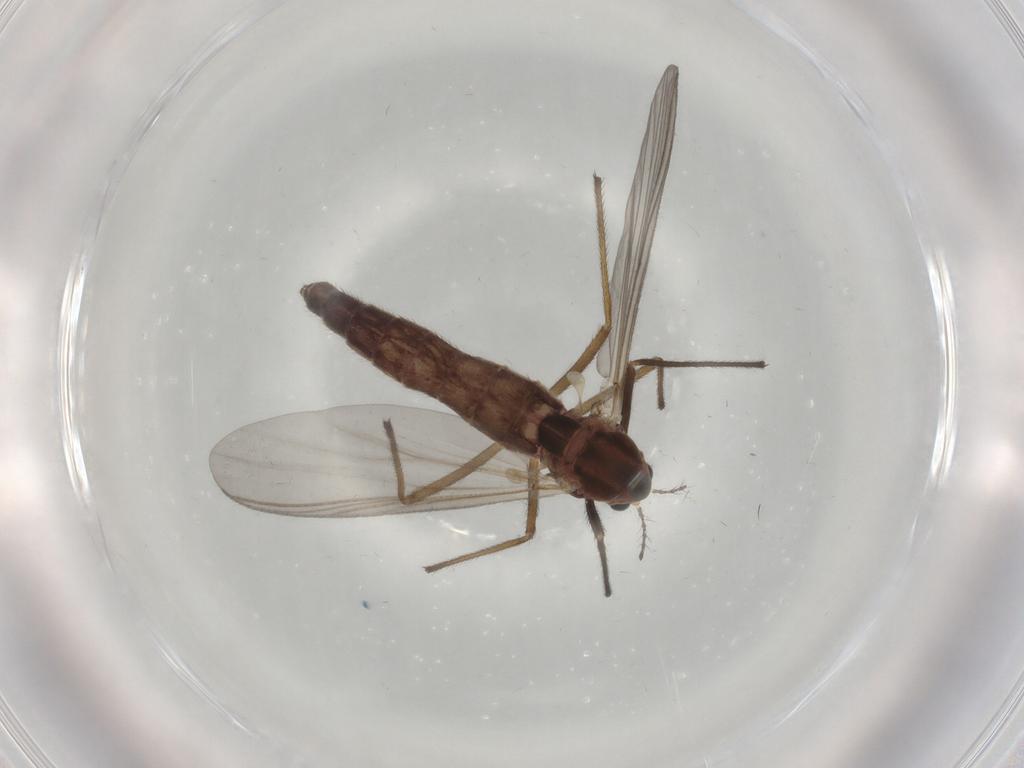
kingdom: Animalia
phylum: Arthropoda
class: Insecta
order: Diptera
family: Chironomidae
